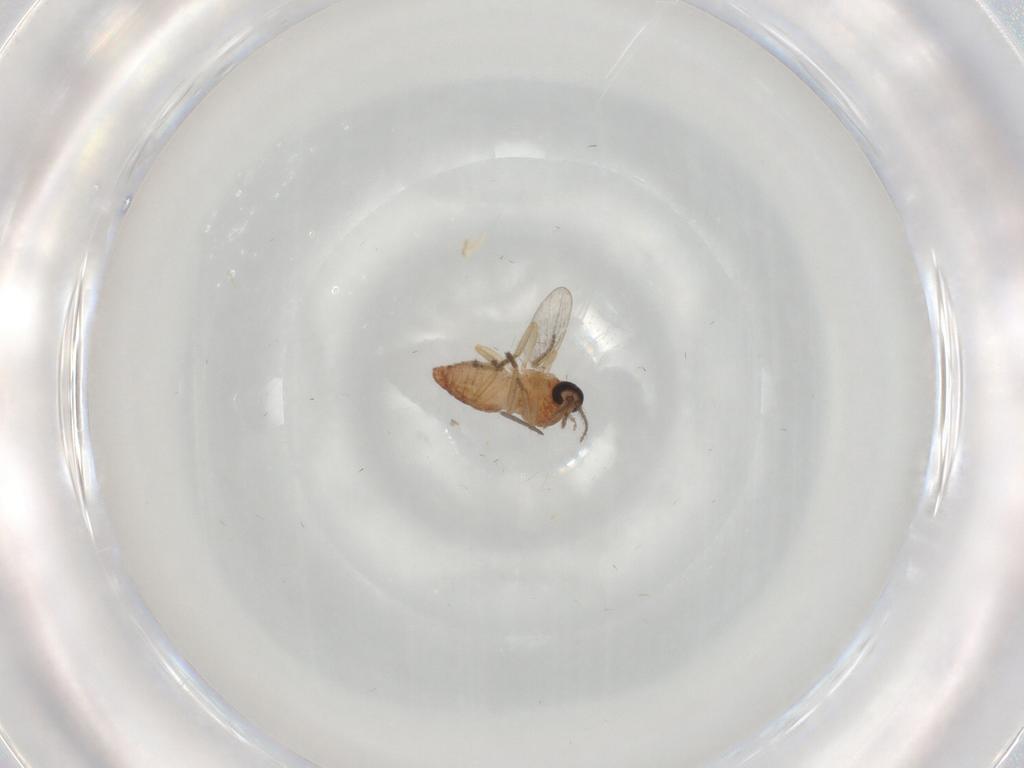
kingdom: Animalia
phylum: Arthropoda
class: Insecta
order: Diptera
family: Ceratopogonidae
